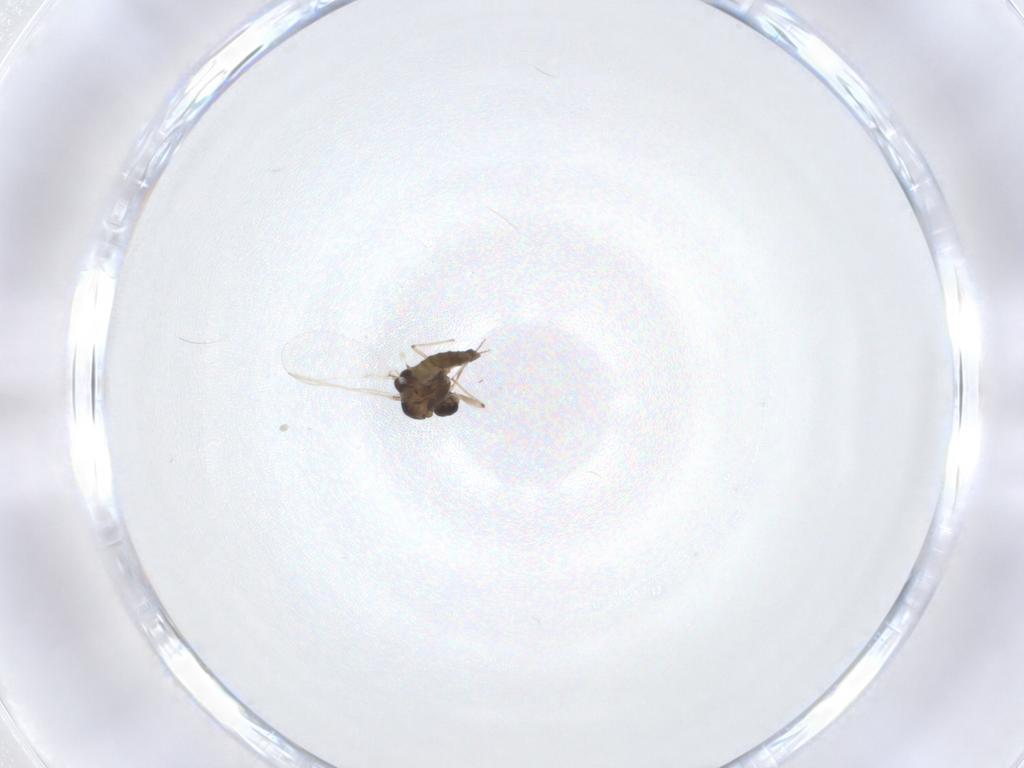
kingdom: Animalia
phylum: Arthropoda
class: Insecta
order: Diptera
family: Chironomidae
